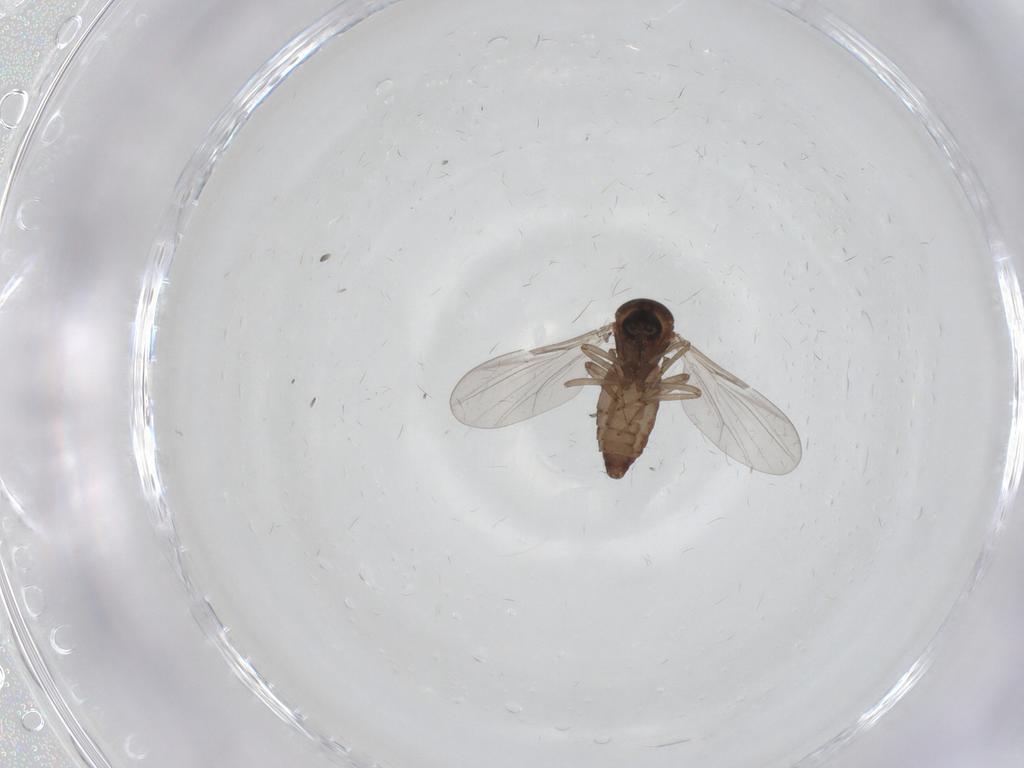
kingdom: Animalia
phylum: Arthropoda
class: Insecta
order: Diptera
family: Ceratopogonidae
